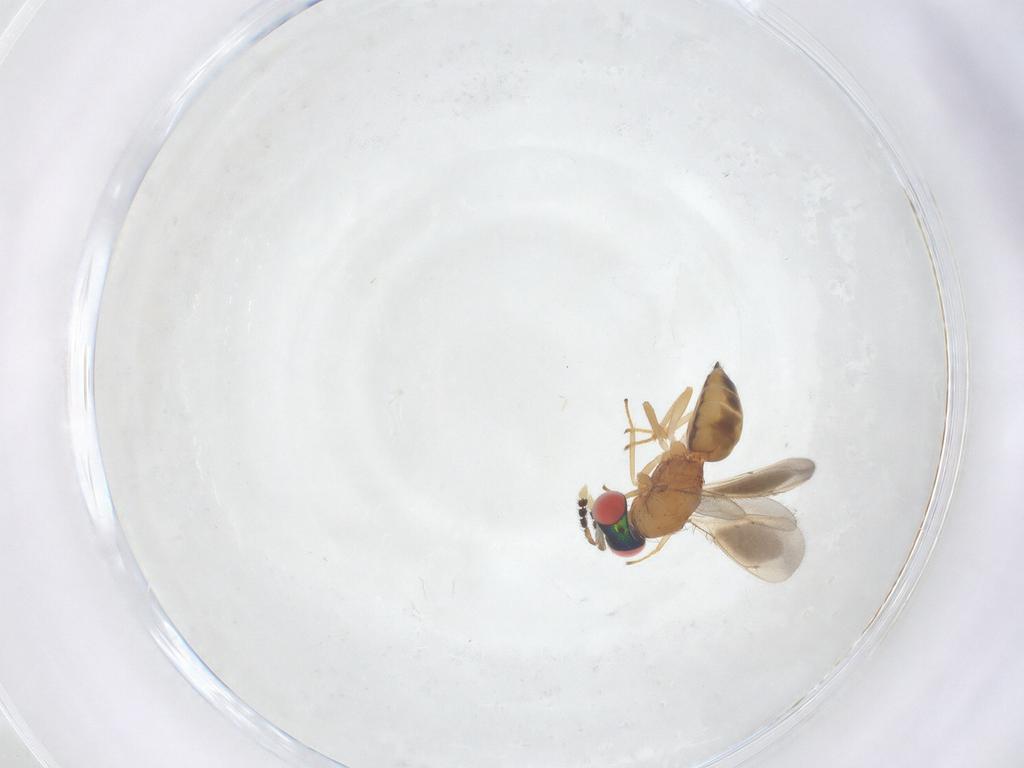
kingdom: Animalia
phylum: Arthropoda
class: Insecta
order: Hymenoptera
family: Eulophidae
